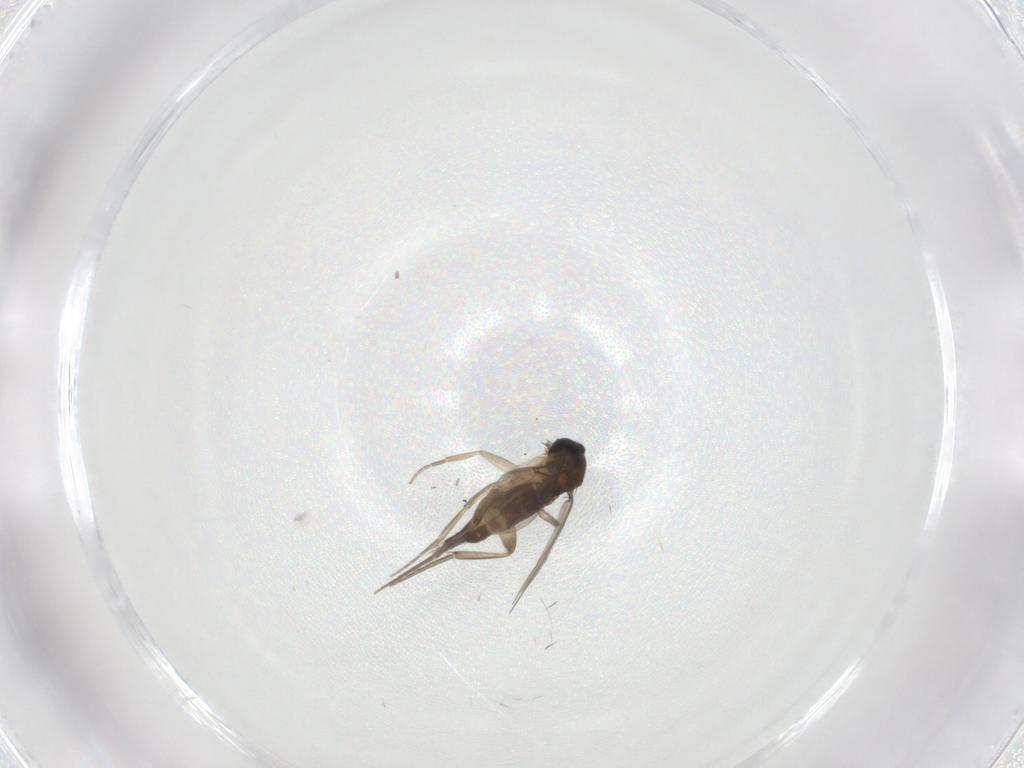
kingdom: Animalia
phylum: Arthropoda
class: Insecta
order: Diptera
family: Phoridae
